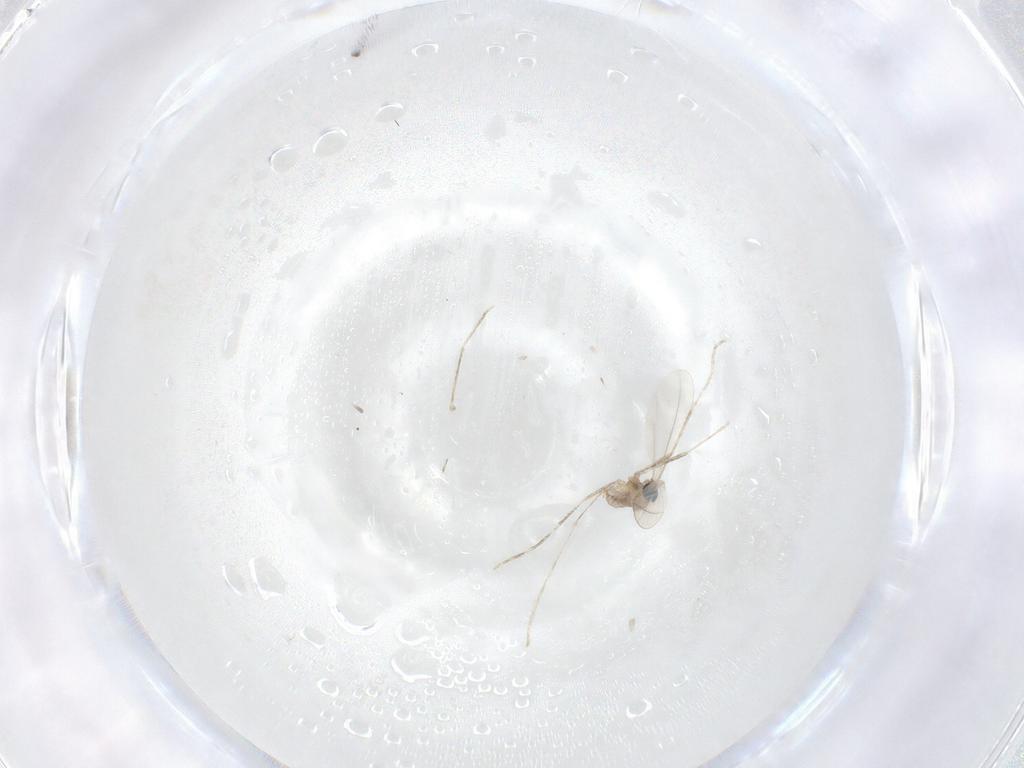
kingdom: Animalia
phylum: Arthropoda
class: Insecta
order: Diptera
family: Cecidomyiidae
